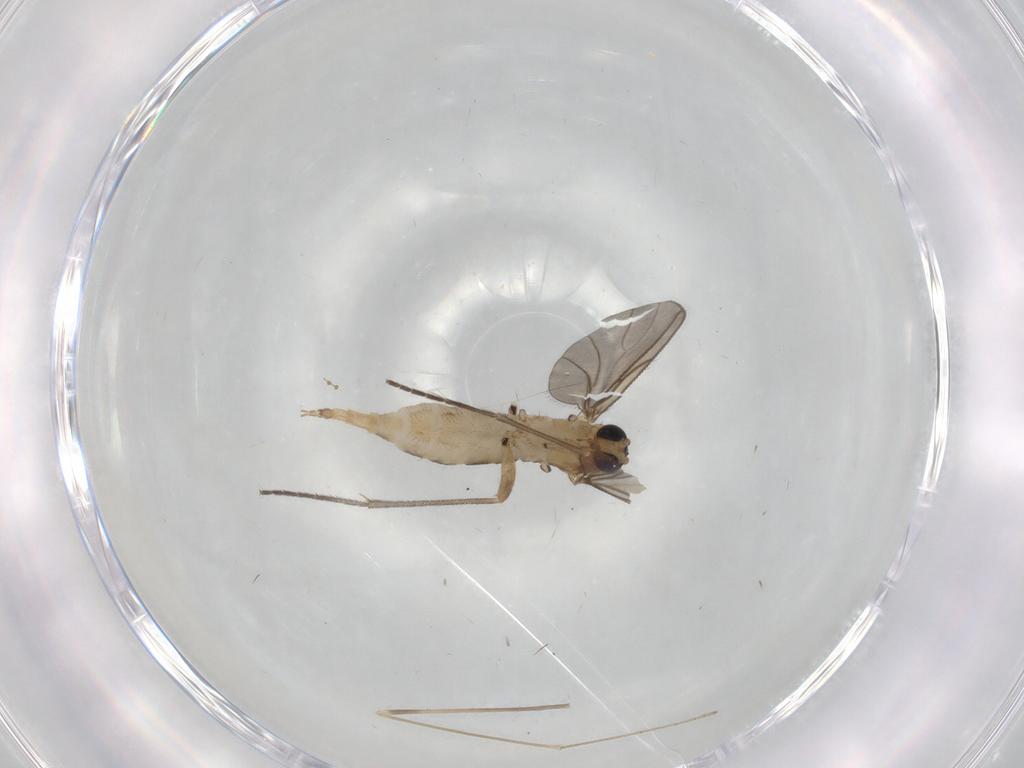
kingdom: Animalia
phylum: Arthropoda
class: Insecta
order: Diptera
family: Sciaridae
